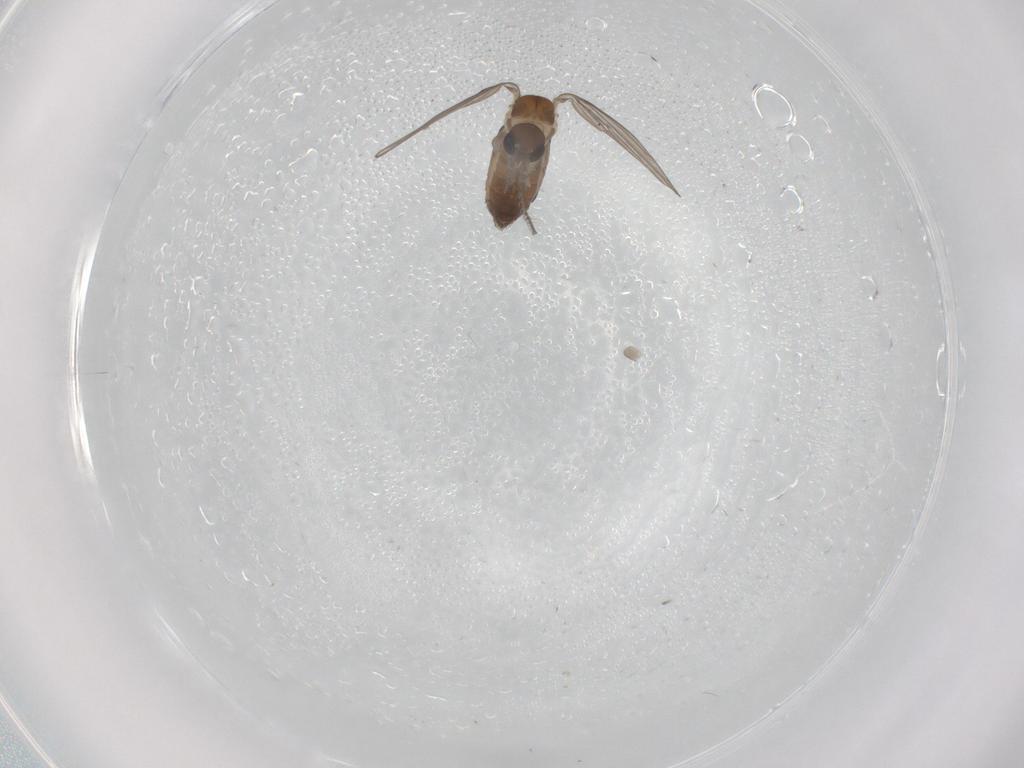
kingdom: Animalia
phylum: Arthropoda
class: Insecta
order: Diptera
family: Psychodidae
